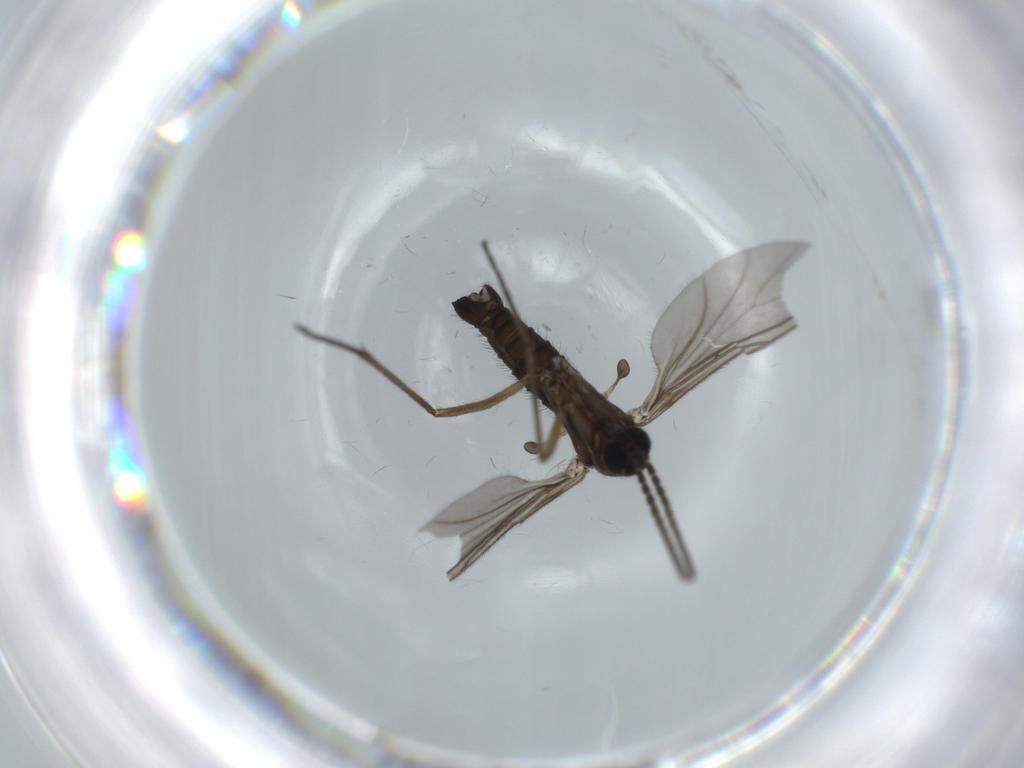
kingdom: Animalia
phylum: Arthropoda
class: Insecta
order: Diptera
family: Sciaridae
